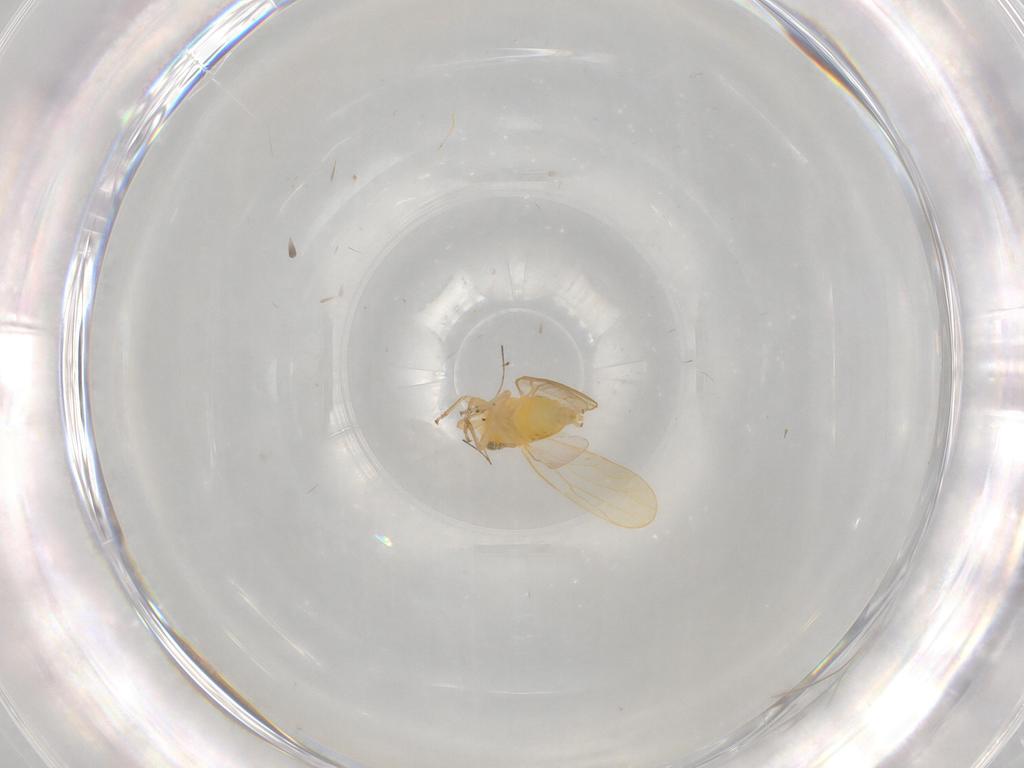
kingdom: Animalia
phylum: Arthropoda
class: Insecta
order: Hemiptera
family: Psyllidae
